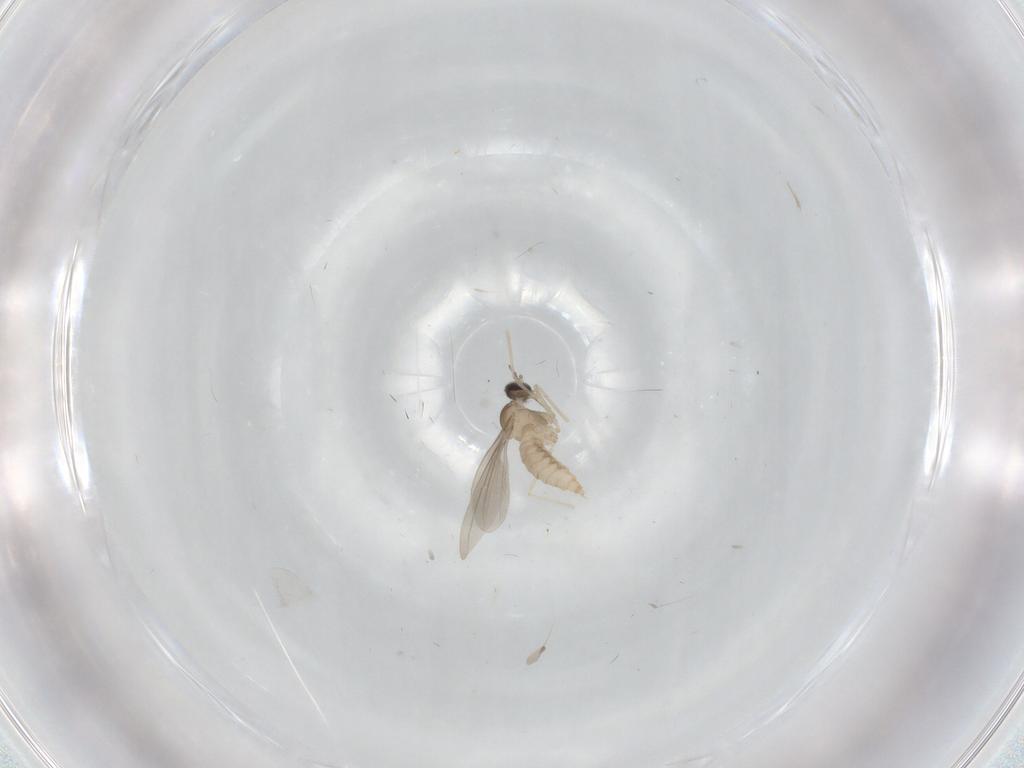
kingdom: Animalia
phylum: Arthropoda
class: Insecta
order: Diptera
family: Cecidomyiidae
